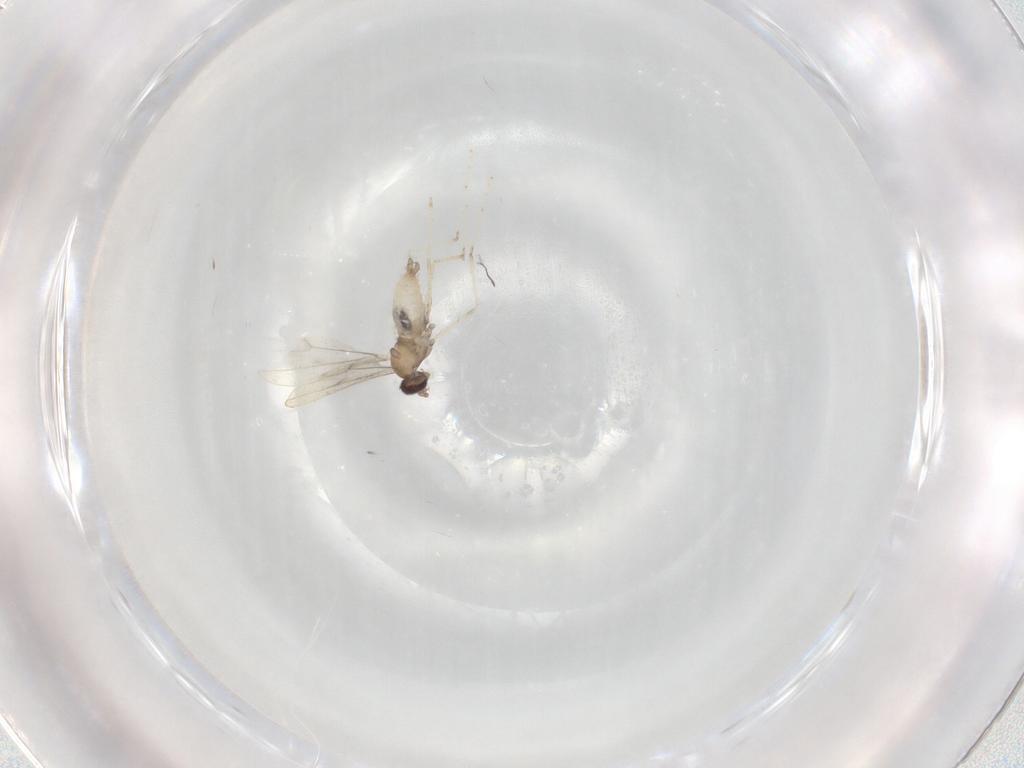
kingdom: Animalia
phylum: Arthropoda
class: Insecta
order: Diptera
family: Cecidomyiidae
